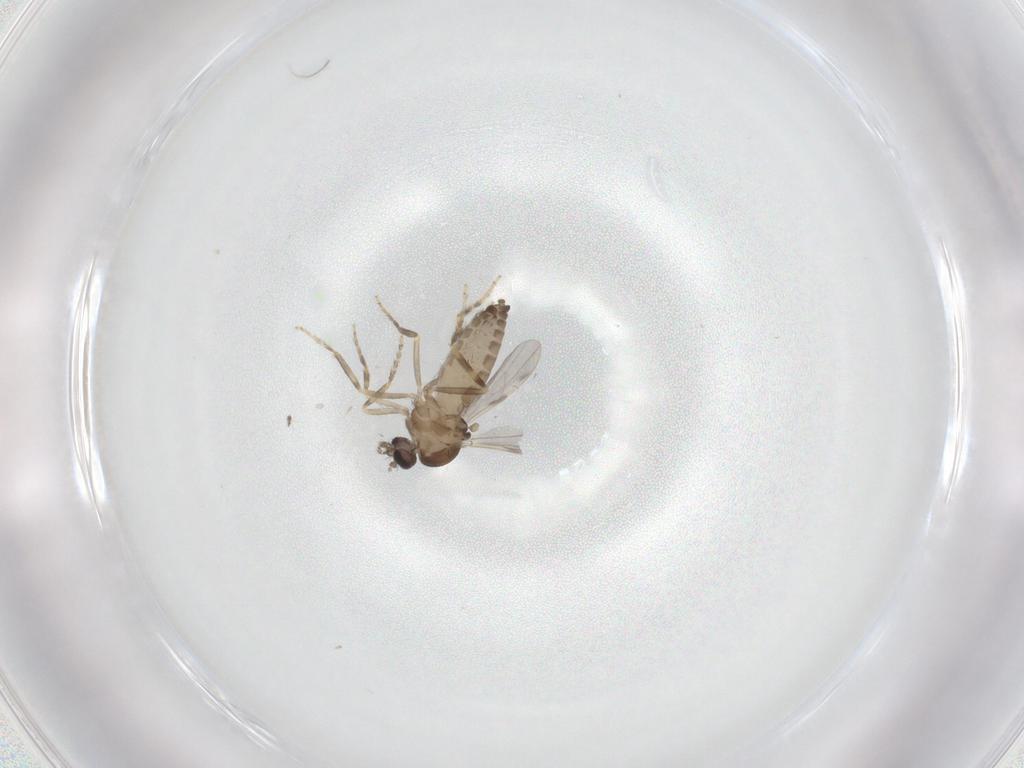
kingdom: Animalia
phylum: Arthropoda
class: Insecta
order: Diptera
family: Ceratopogonidae
